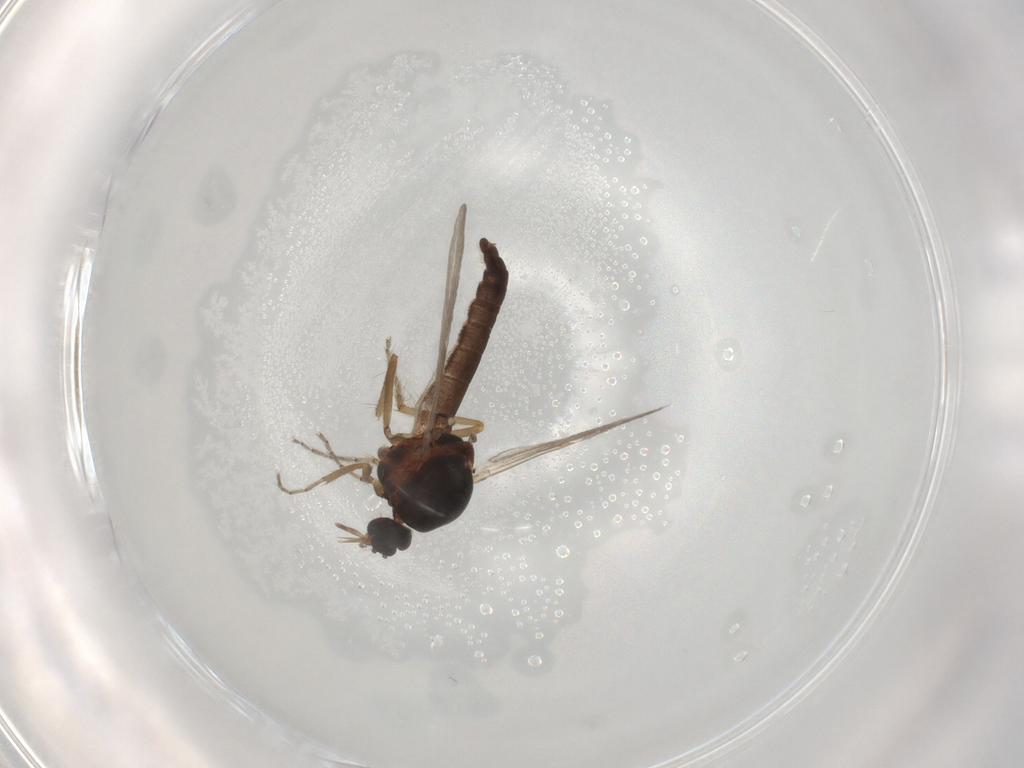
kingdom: Animalia
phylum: Arthropoda
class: Insecta
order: Diptera
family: Ceratopogonidae
